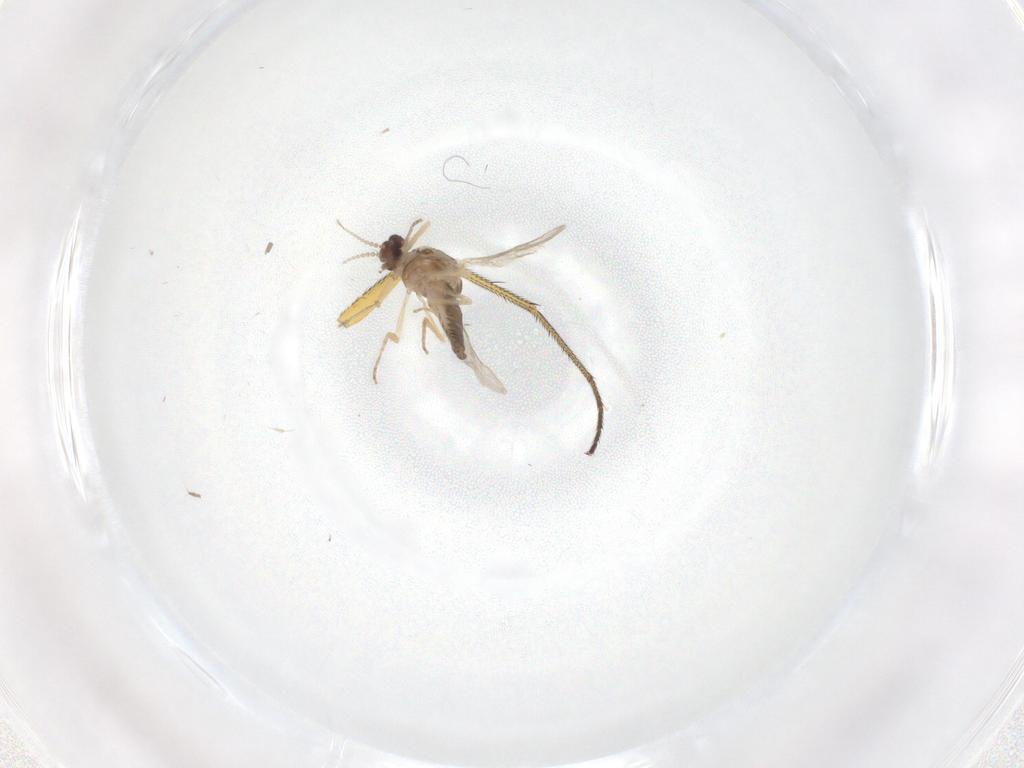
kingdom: Animalia
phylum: Arthropoda
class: Insecta
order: Diptera
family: Dolichopodidae
